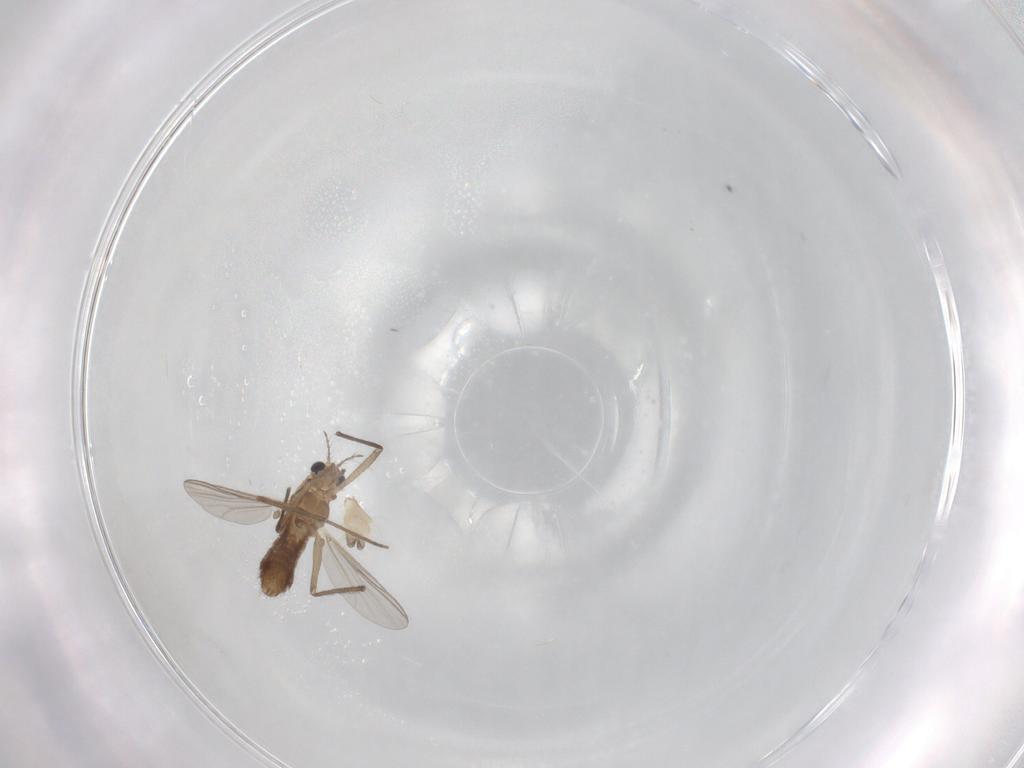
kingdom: Animalia
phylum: Arthropoda
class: Insecta
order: Diptera
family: Chironomidae
